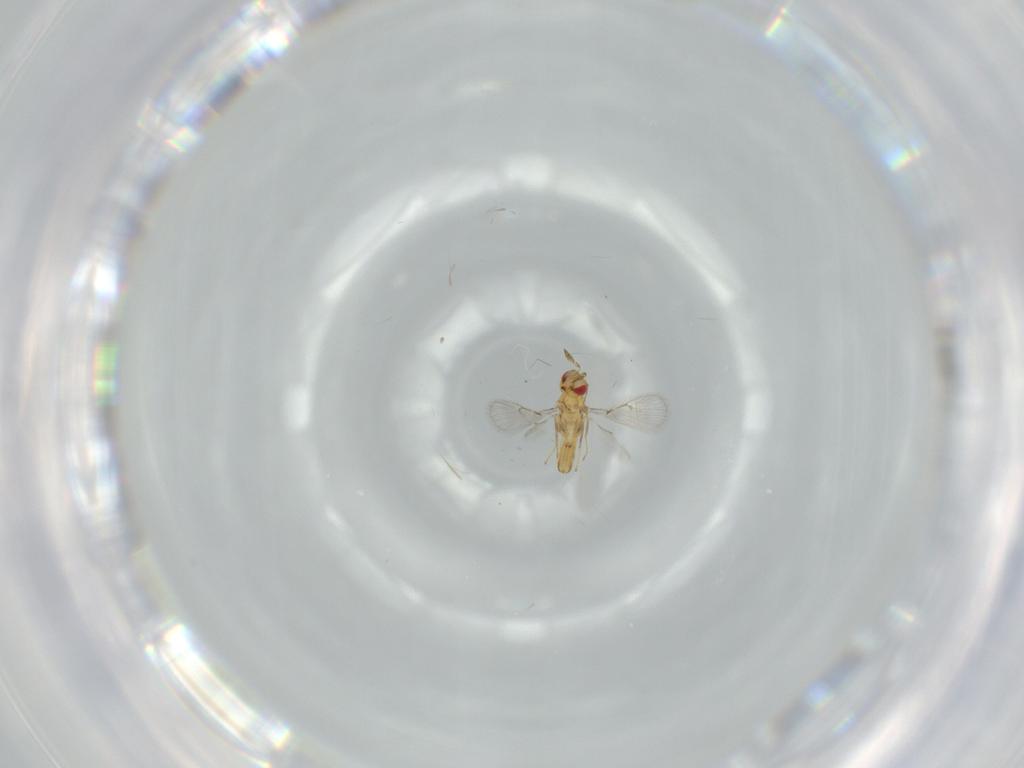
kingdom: Animalia
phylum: Arthropoda
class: Insecta
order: Hymenoptera
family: Trichogrammatidae
